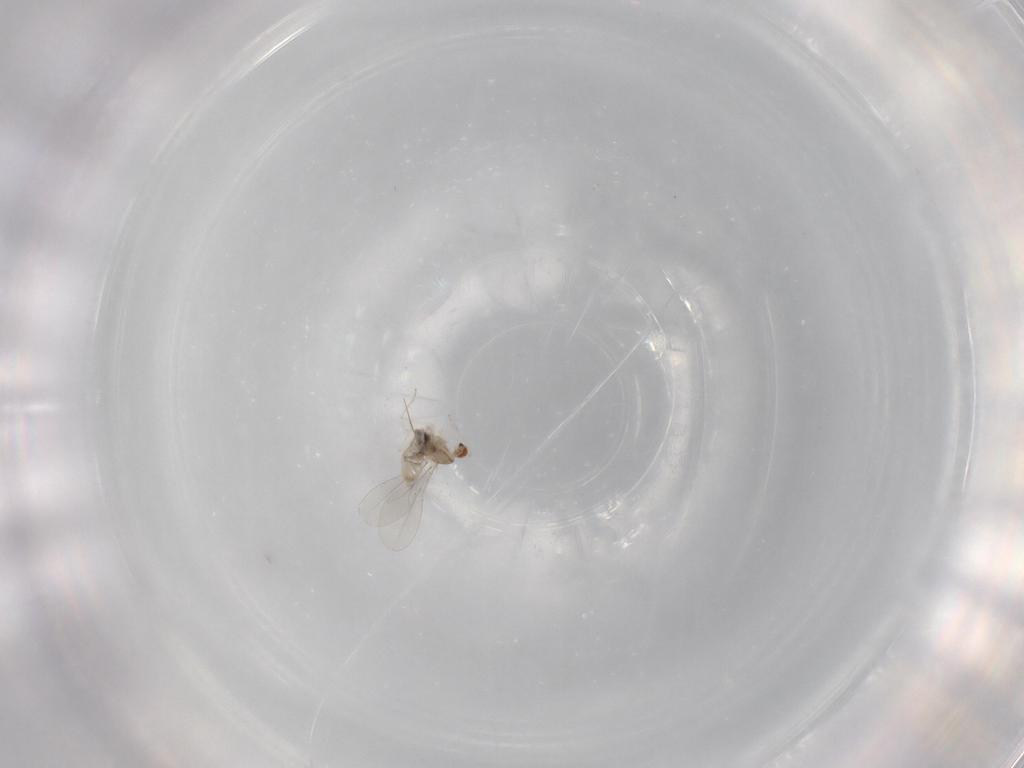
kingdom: Animalia
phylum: Arthropoda
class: Insecta
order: Diptera
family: Cecidomyiidae
